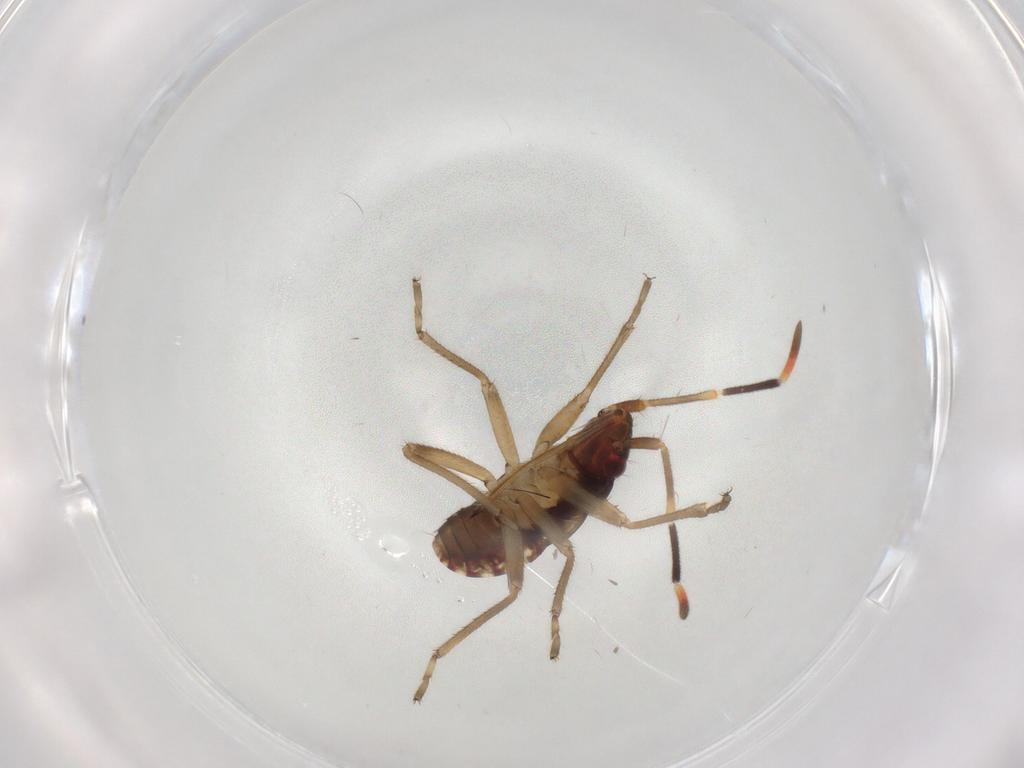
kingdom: Animalia
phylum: Arthropoda
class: Insecta
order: Hemiptera
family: Rhyparochromidae
